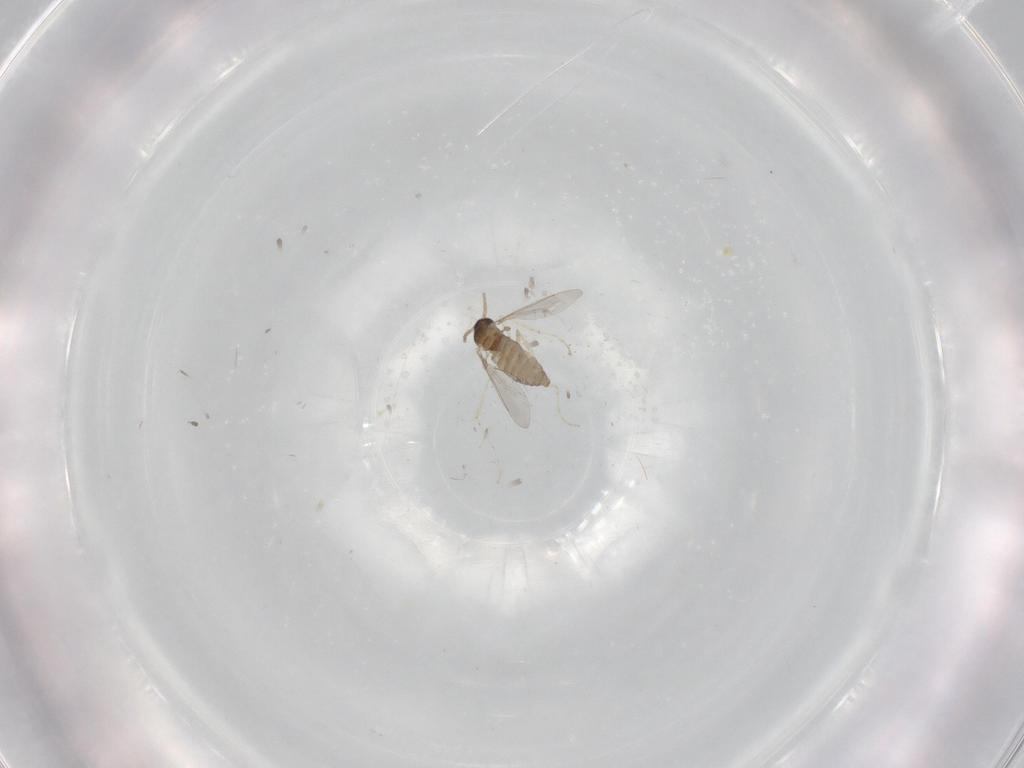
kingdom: Animalia
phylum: Arthropoda
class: Insecta
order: Diptera
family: Cecidomyiidae
